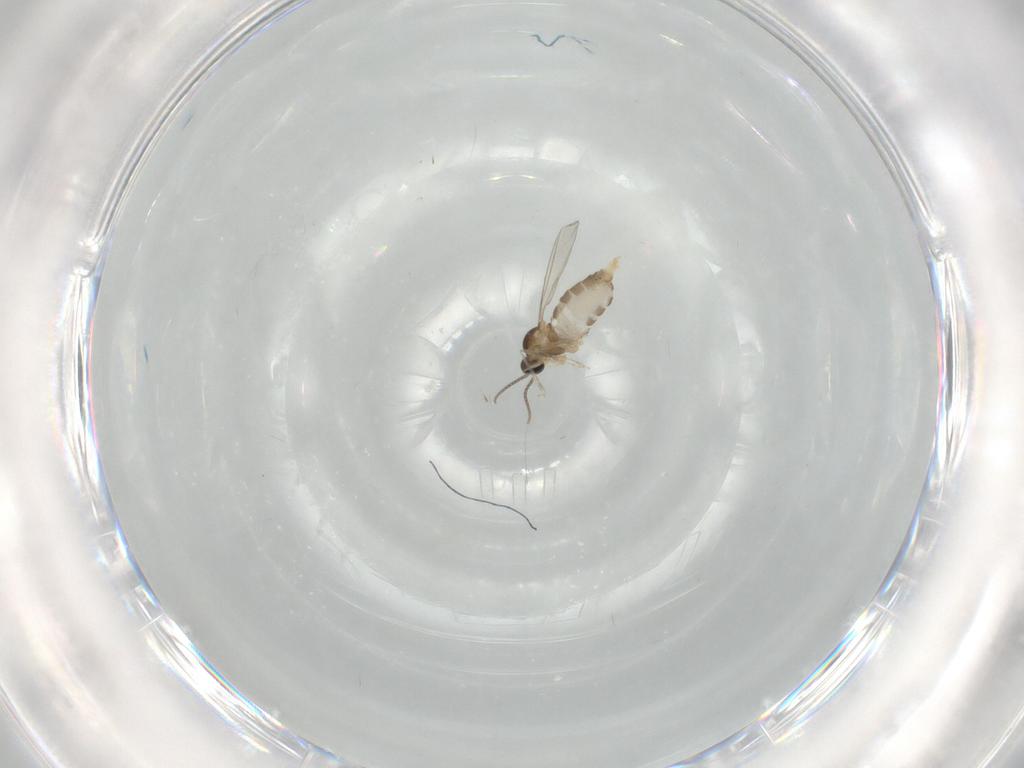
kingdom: Animalia
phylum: Arthropoda
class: Insecta
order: Diptera
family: Cecidomyiidae
